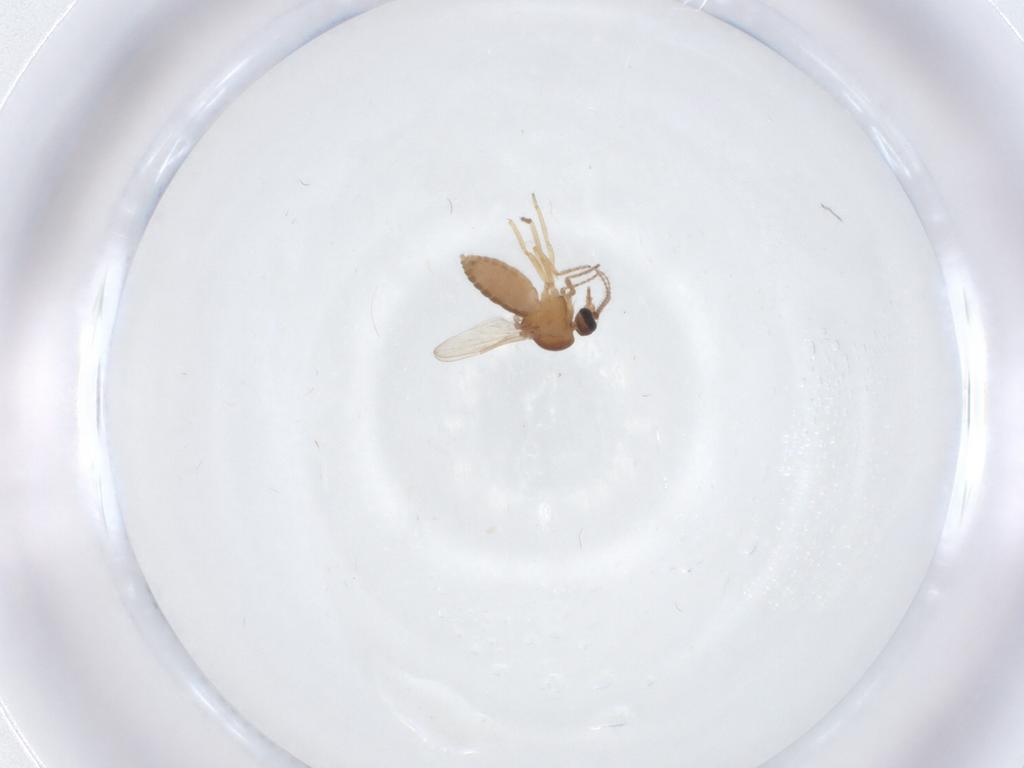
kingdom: Animalia
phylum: Arthropoda
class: Insecta
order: Diptera
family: Ceratopogonidae
